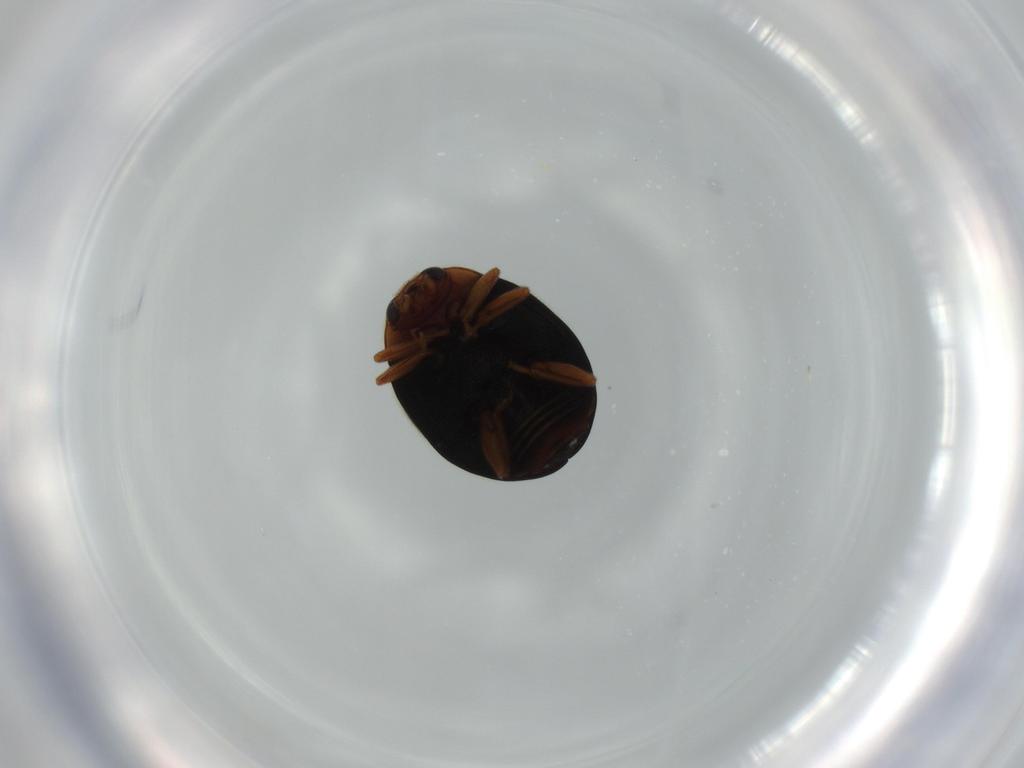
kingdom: Animalia
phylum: Arthropoda
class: Insecta
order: Coleoptera
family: Coccinellidae
